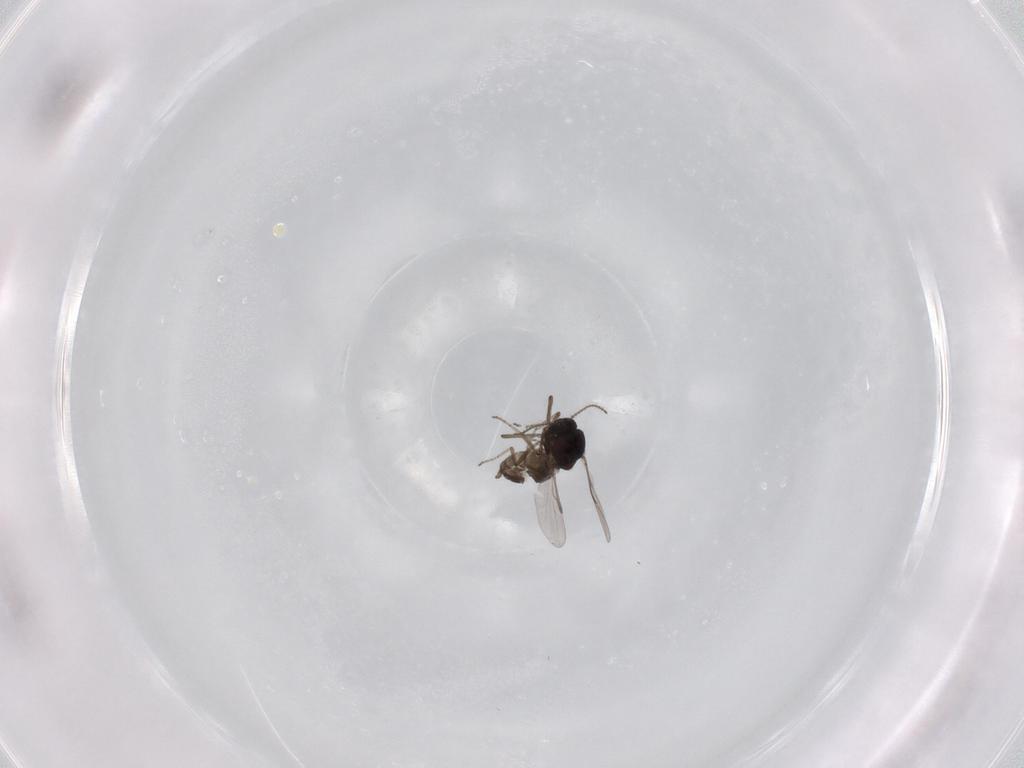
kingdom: Animalia
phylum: Arthropoda
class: Insecta
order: Diptera
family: Ceratopogonidae
